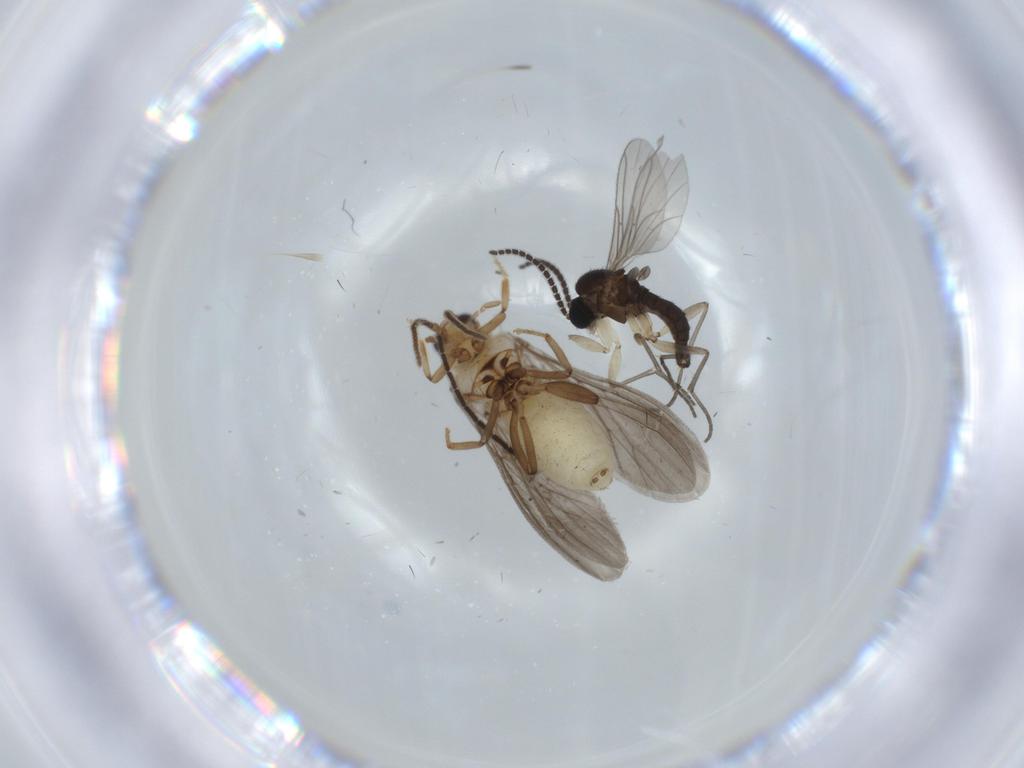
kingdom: Animalia
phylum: Arthropoda
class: Insecta
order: Neuroptera
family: Coniopterygidae
